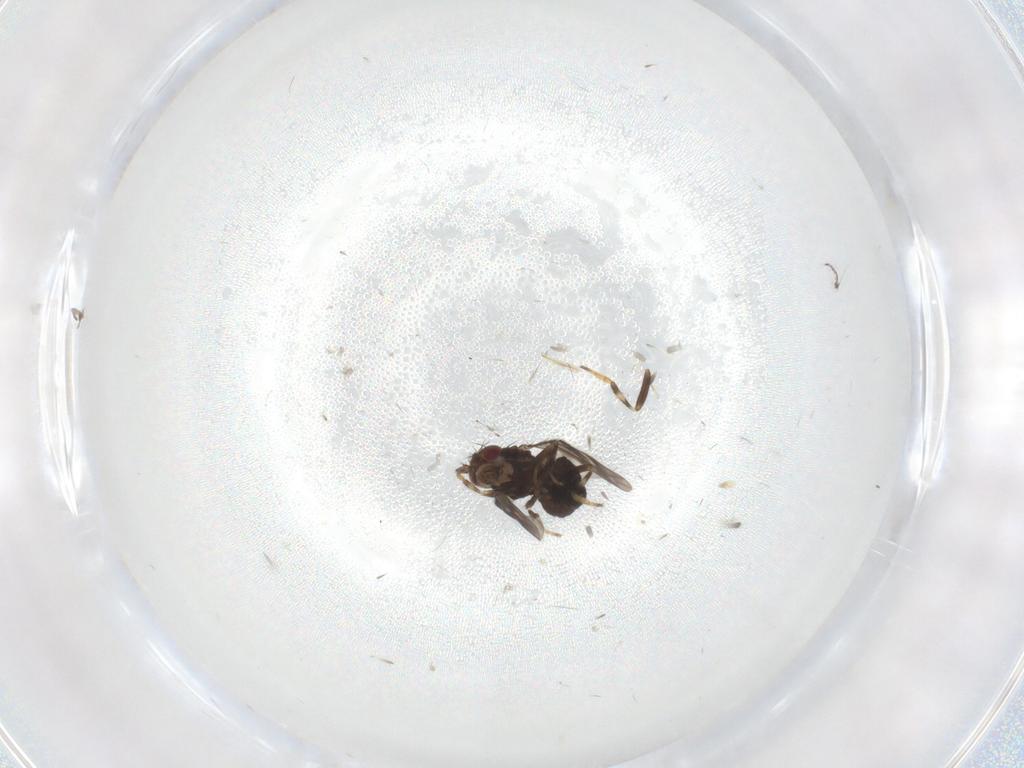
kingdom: Animalia
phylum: Arthropoda
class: Insecta
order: Diptera
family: Sphaeroceridae
